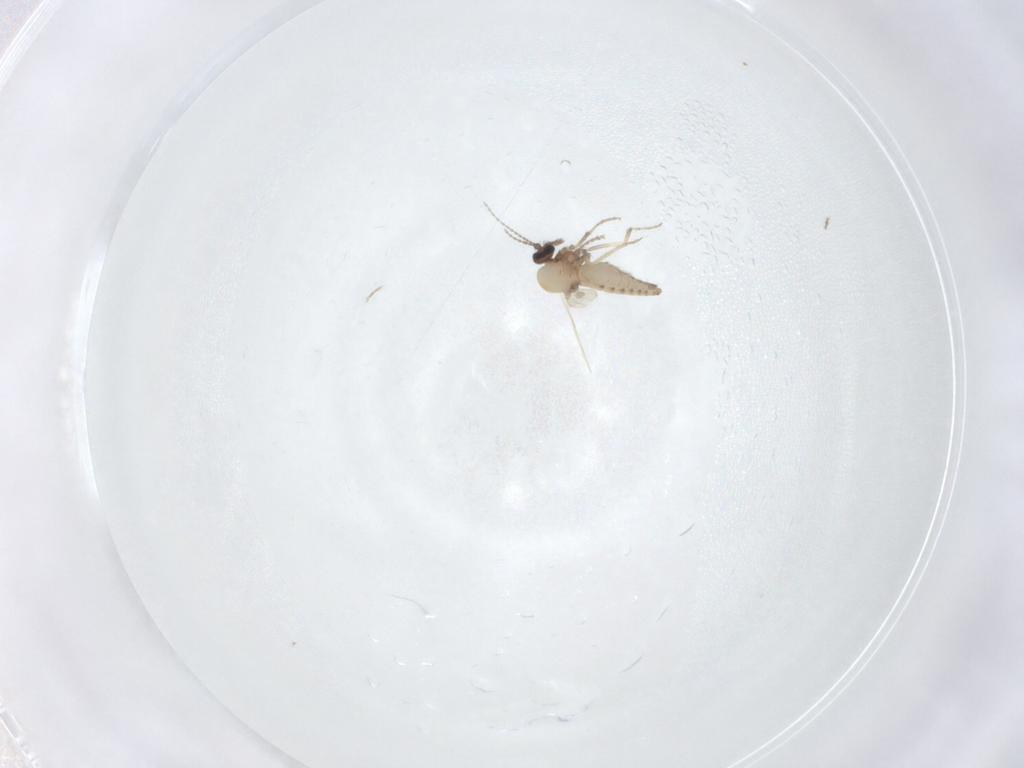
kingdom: Animalia
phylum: Arthropoda
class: Insecta
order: Diptera
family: Ceratopogonidae
